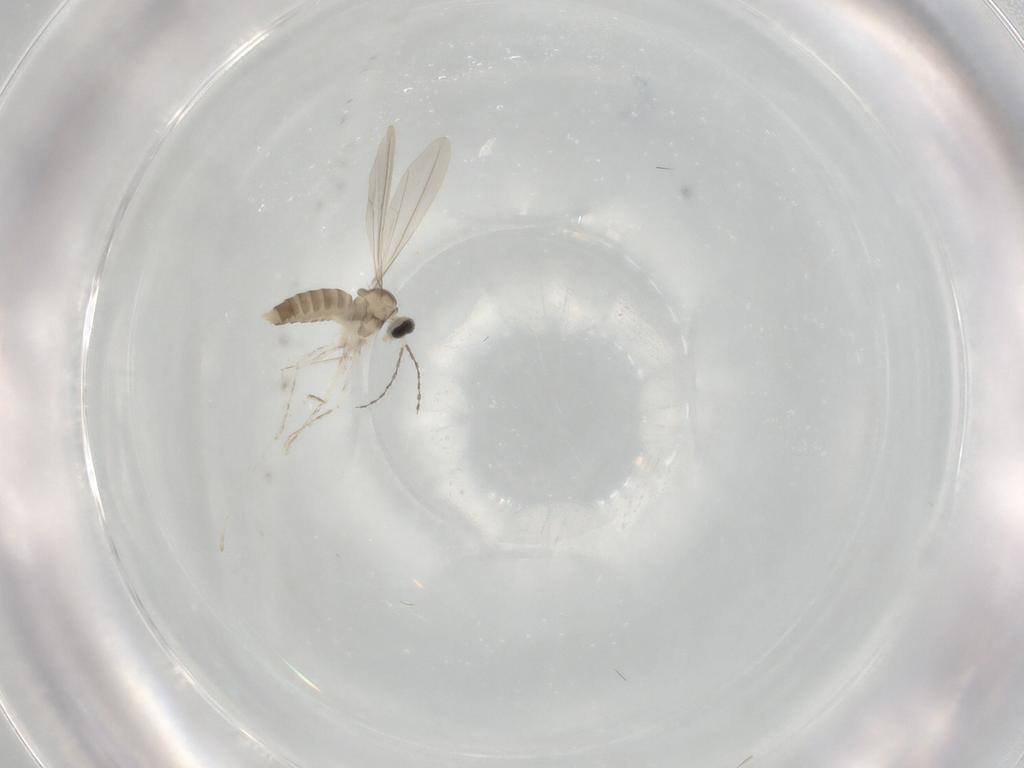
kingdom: Animalia
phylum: Arthropoda
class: Insecta
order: Diptera
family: Cecidomyiidae
